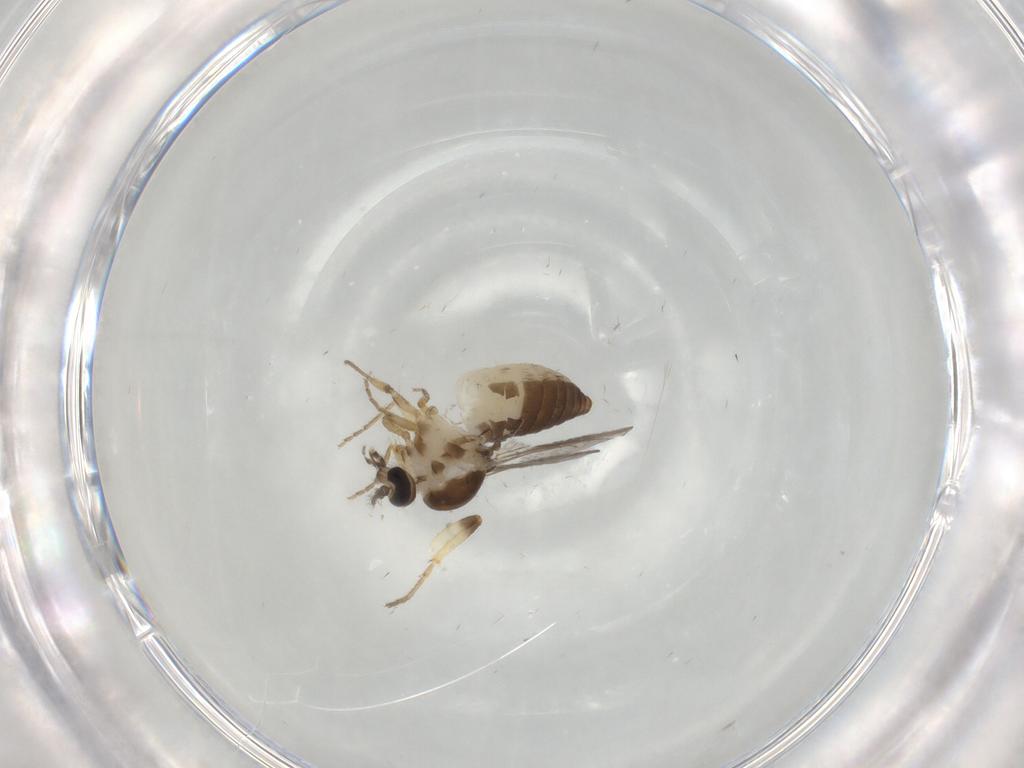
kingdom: Animalia
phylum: Arthropoda
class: Insecta
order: Diptera
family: Ceratopogonidae
